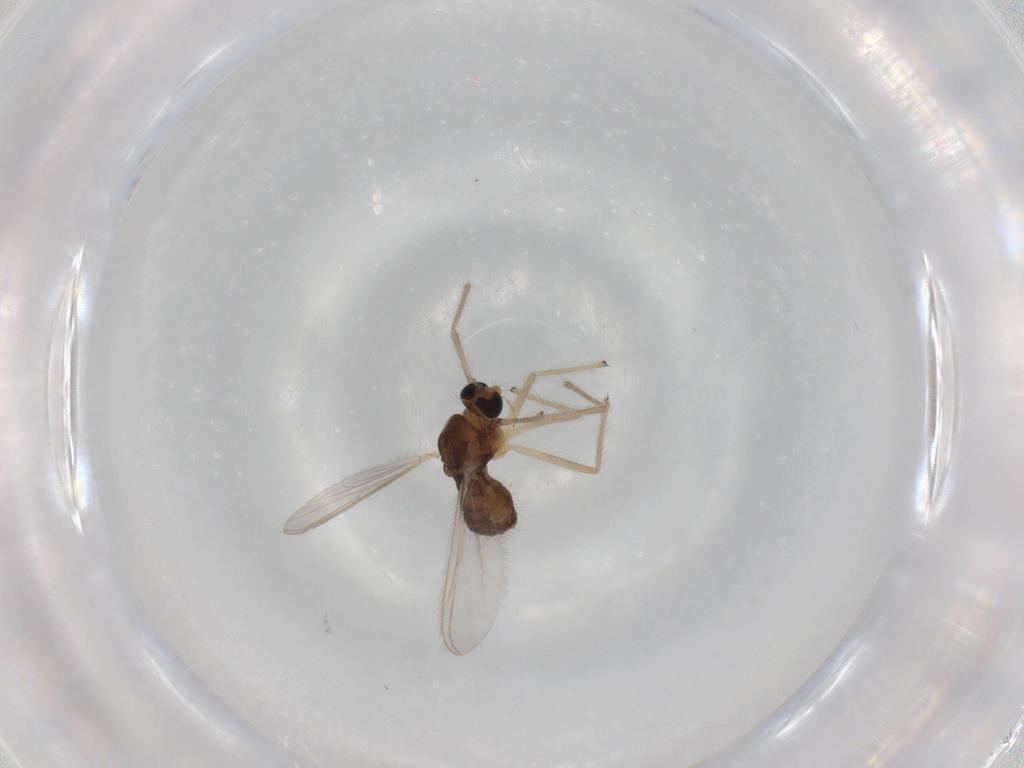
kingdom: Animalia
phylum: Arthropoda
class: Insecta
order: Diptera
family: Chironomidae
